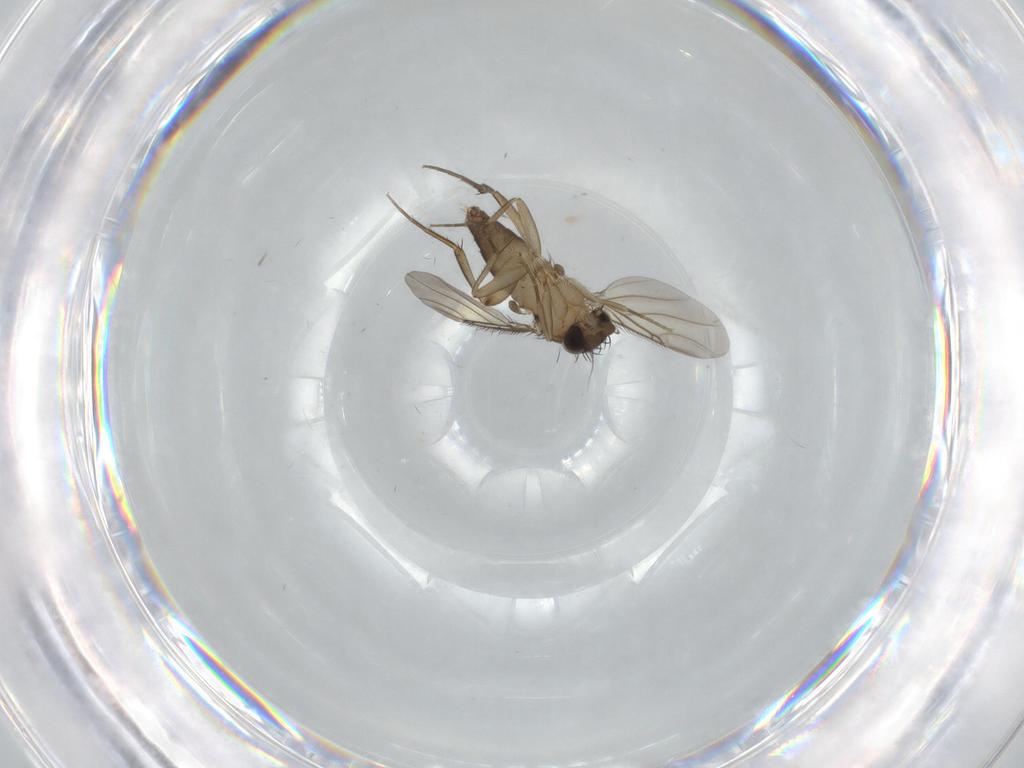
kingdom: Animalia
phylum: Arthropoda
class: Insecta
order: Diptera
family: Phoridae
